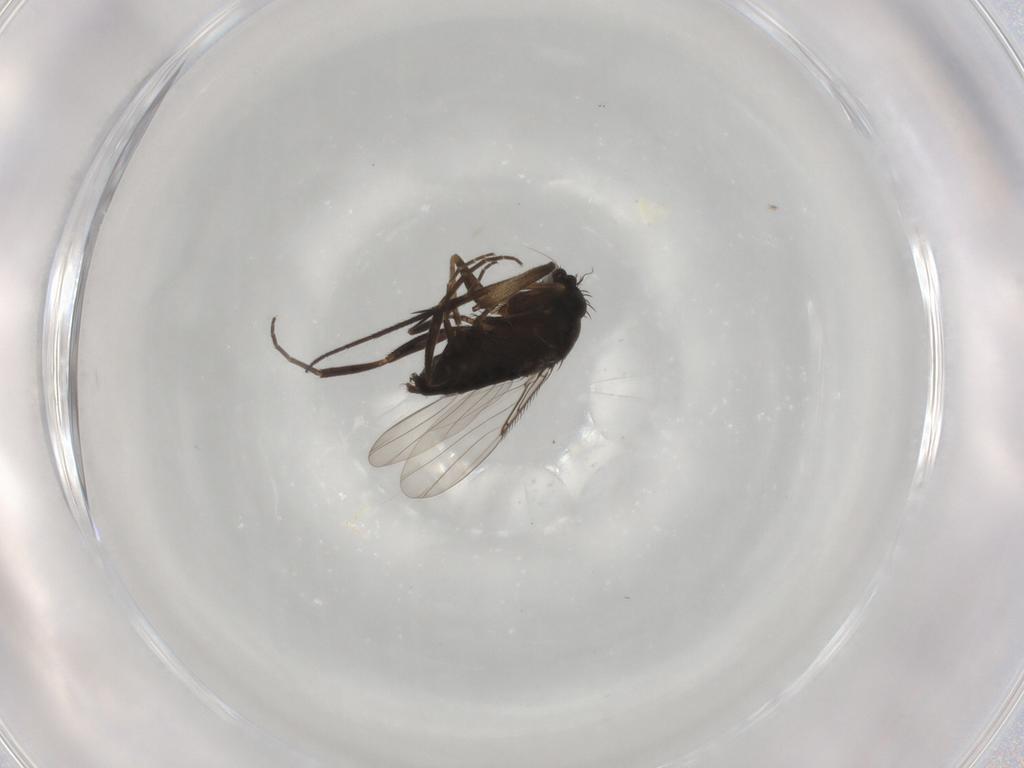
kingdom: Animalia
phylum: Arthropoda
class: Insecta
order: Diptera
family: Phoridae
